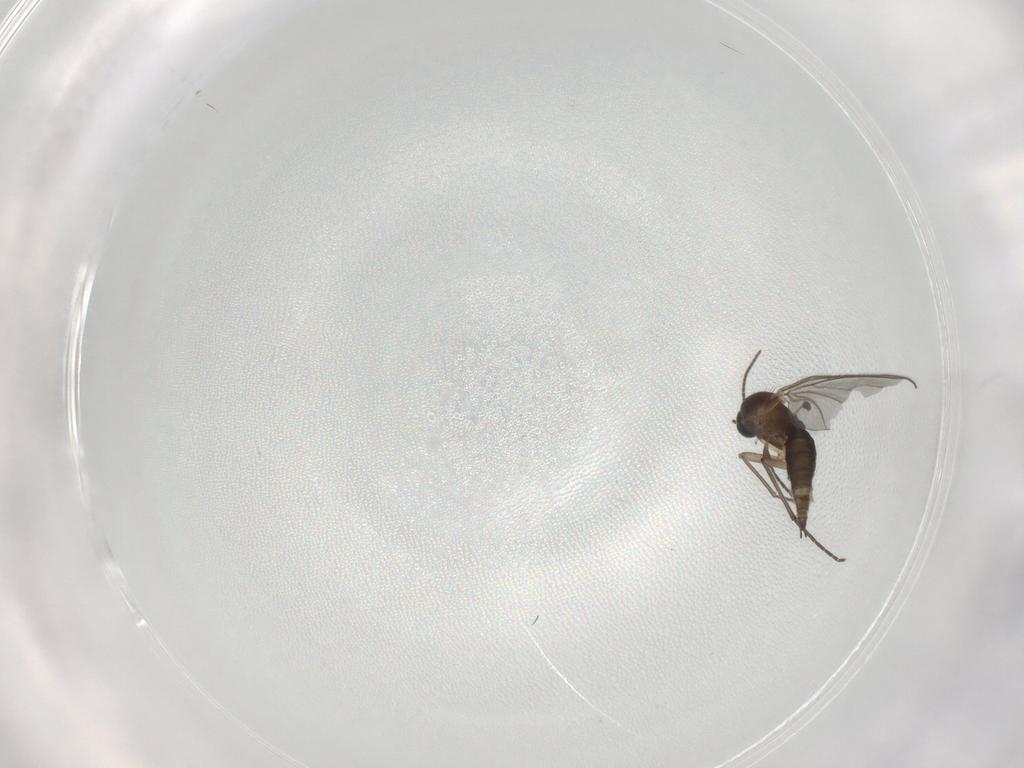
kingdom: Animalia
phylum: Arthropoda
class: Insecta
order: Diptera
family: Sciaridae
